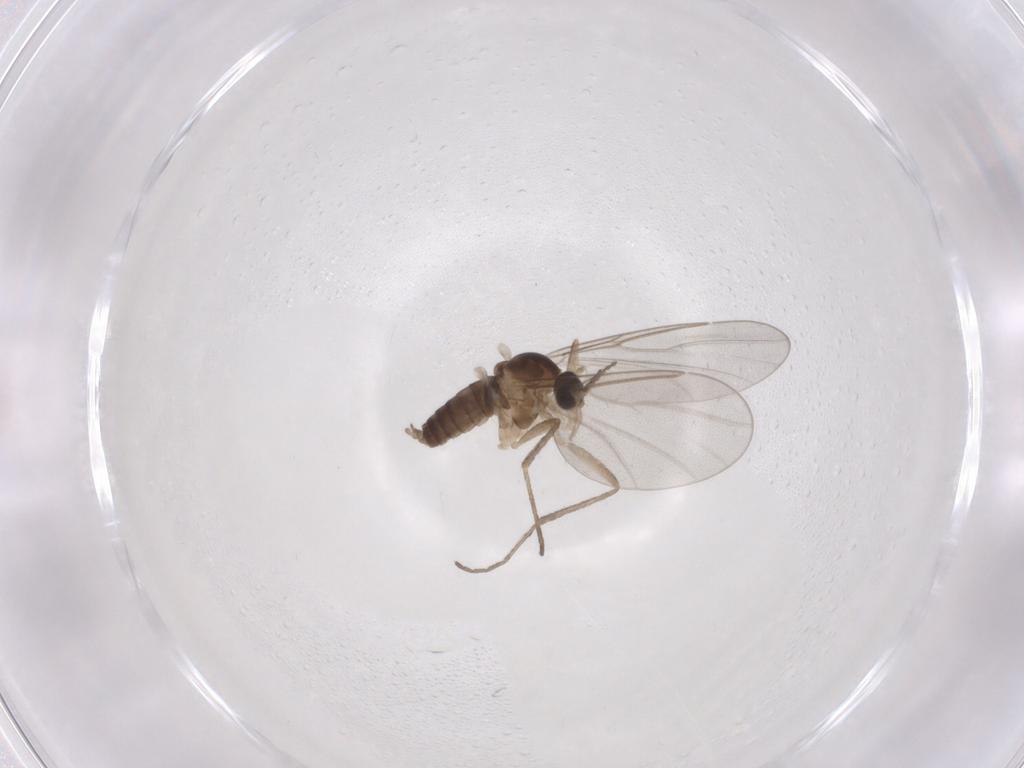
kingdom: Animalia
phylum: Arthropoda
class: Insecta
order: Diptera
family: Cecidomyiidae
